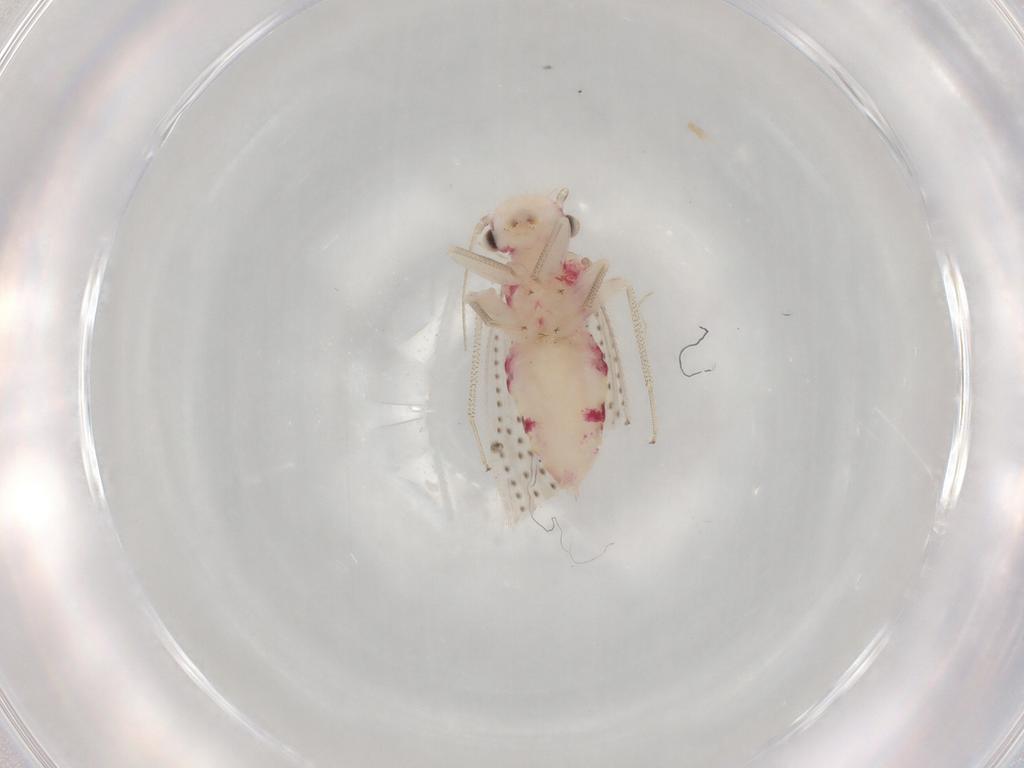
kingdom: Animalia
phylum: Arthropoda
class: Insecta
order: Psocodea
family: Hemipsocidae
